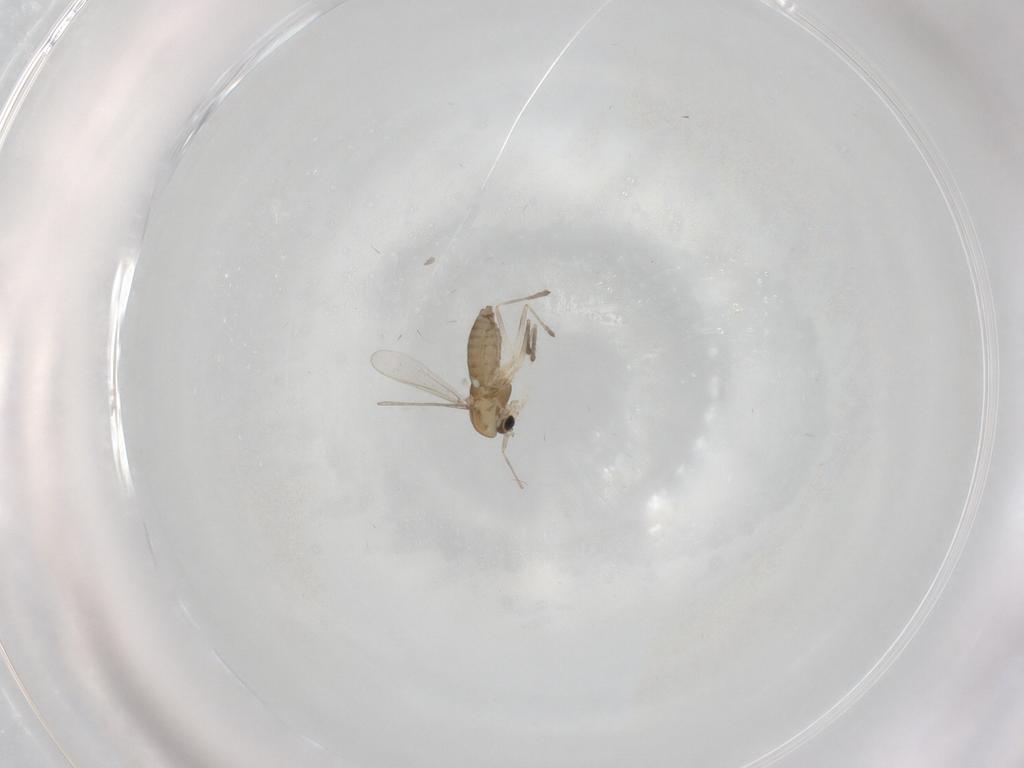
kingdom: Animalia
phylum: Arthropoda
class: Insecta
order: Diptera
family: Chironomidae
